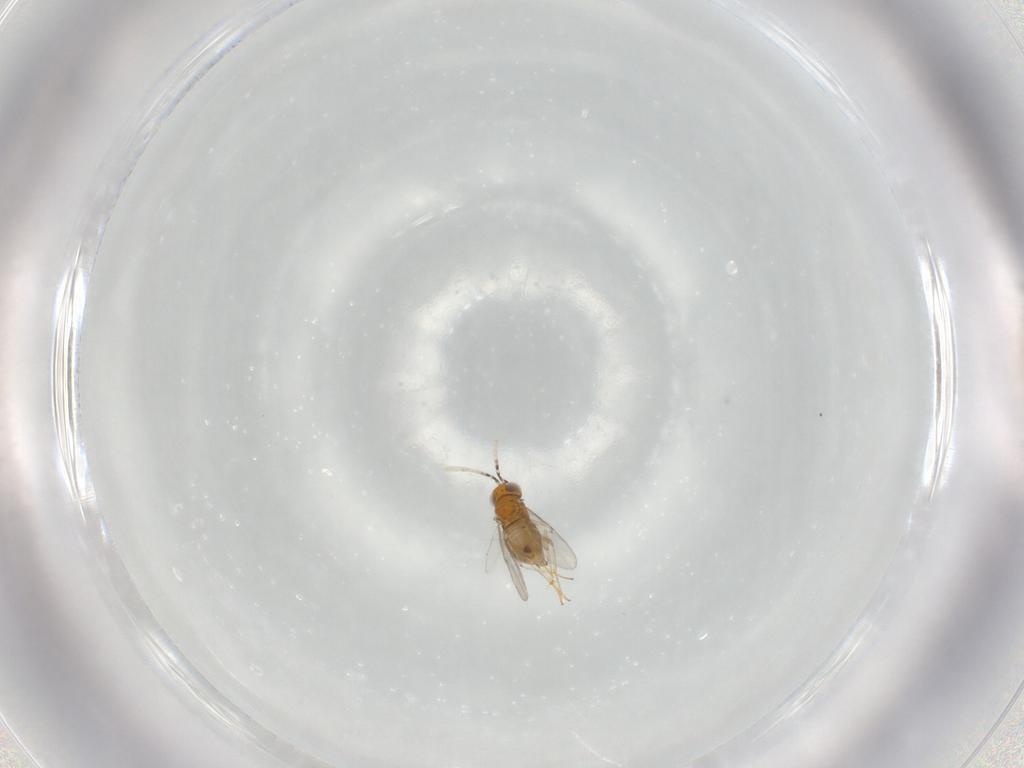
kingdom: Animalia
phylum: Arthropoda
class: Insecta
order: Hymenoptera
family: Encyrtidae
